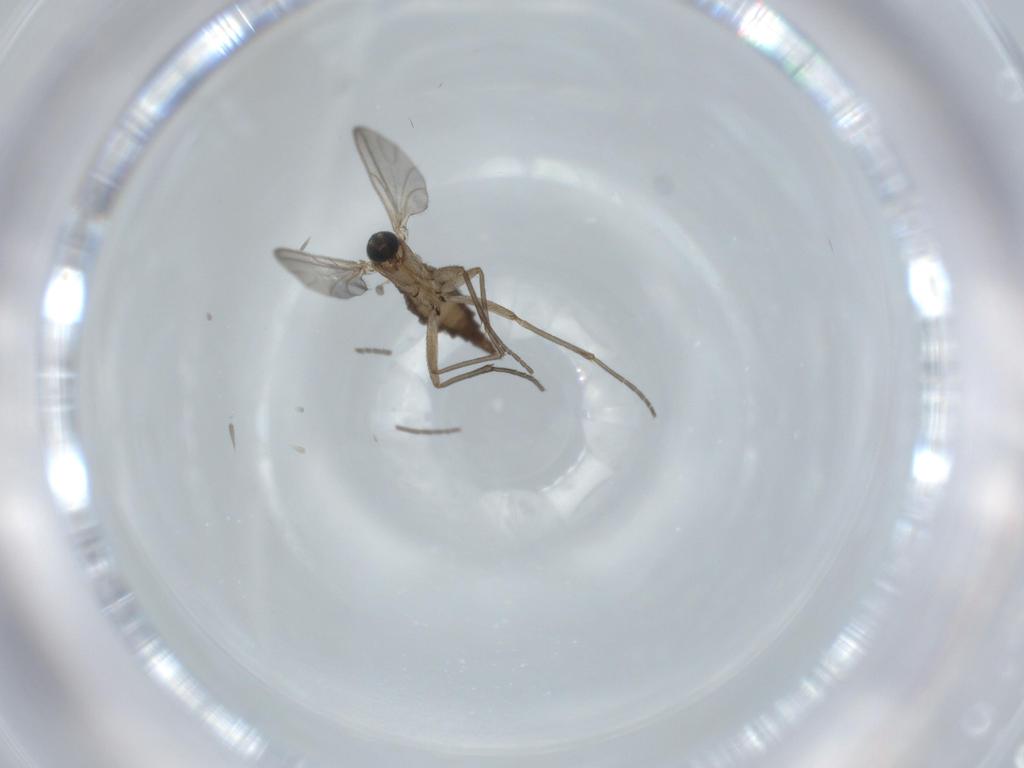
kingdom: Animalia
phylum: Arthropoda
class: Insecta
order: Diptera
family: Sciaridae
